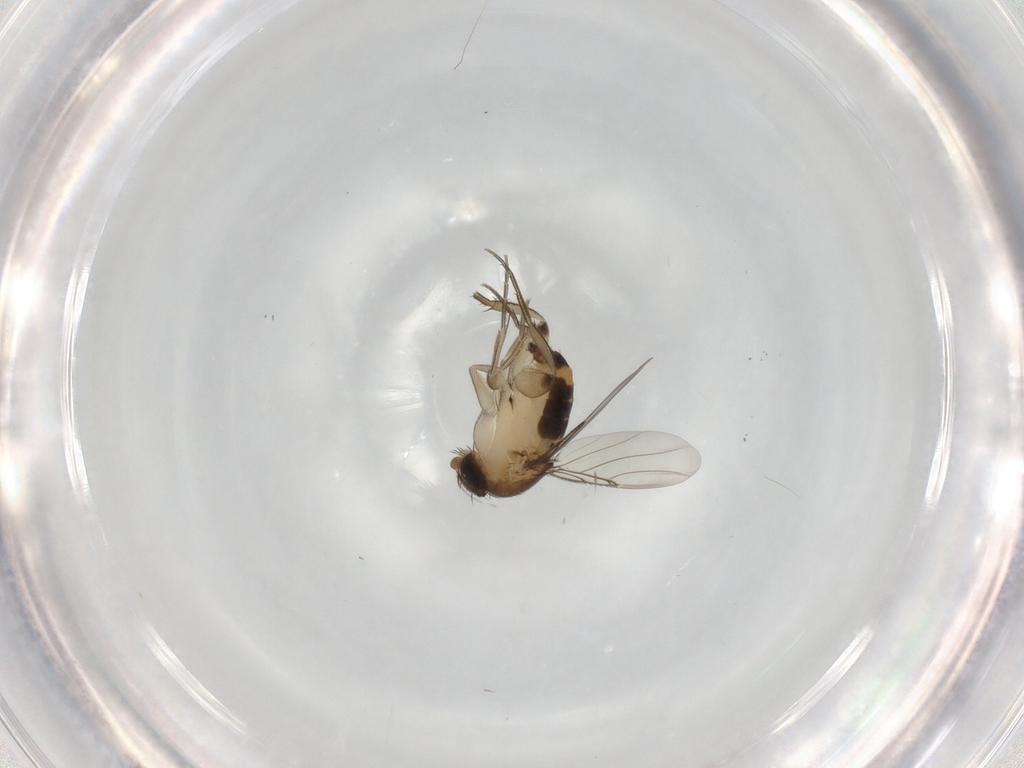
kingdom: Animalia
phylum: Arthropoda
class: Insecta
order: Diptera
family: Phoridae
